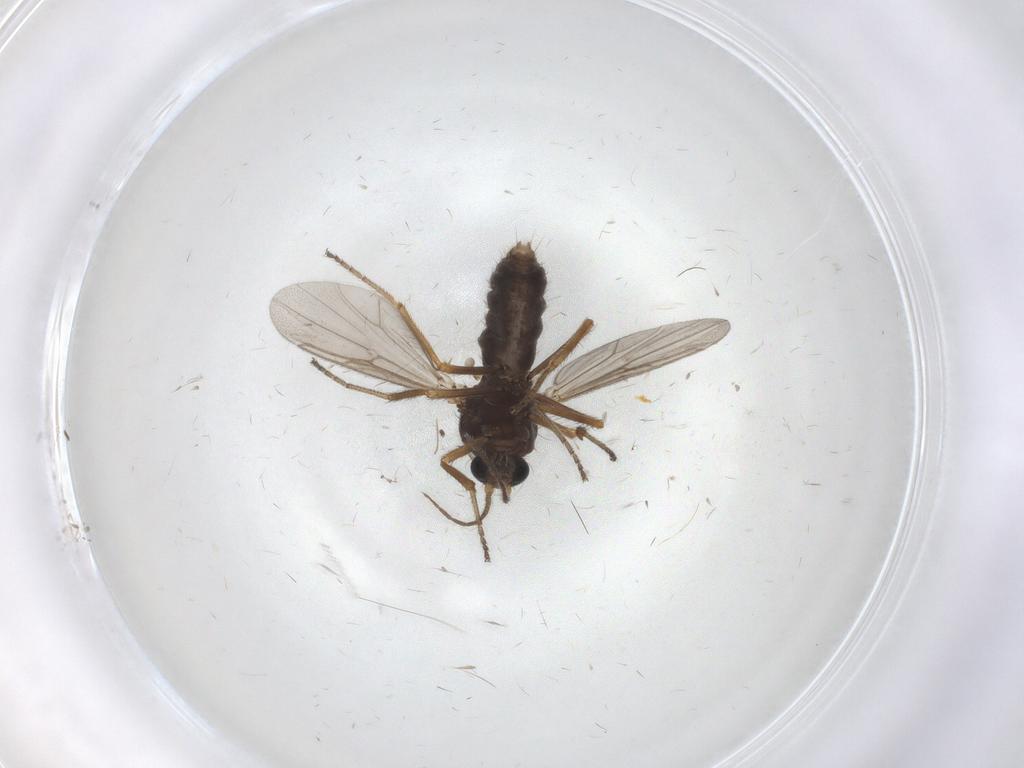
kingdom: Animalia
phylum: Arthropoda
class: Insecta
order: Diptera
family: Ceratopogonidae
